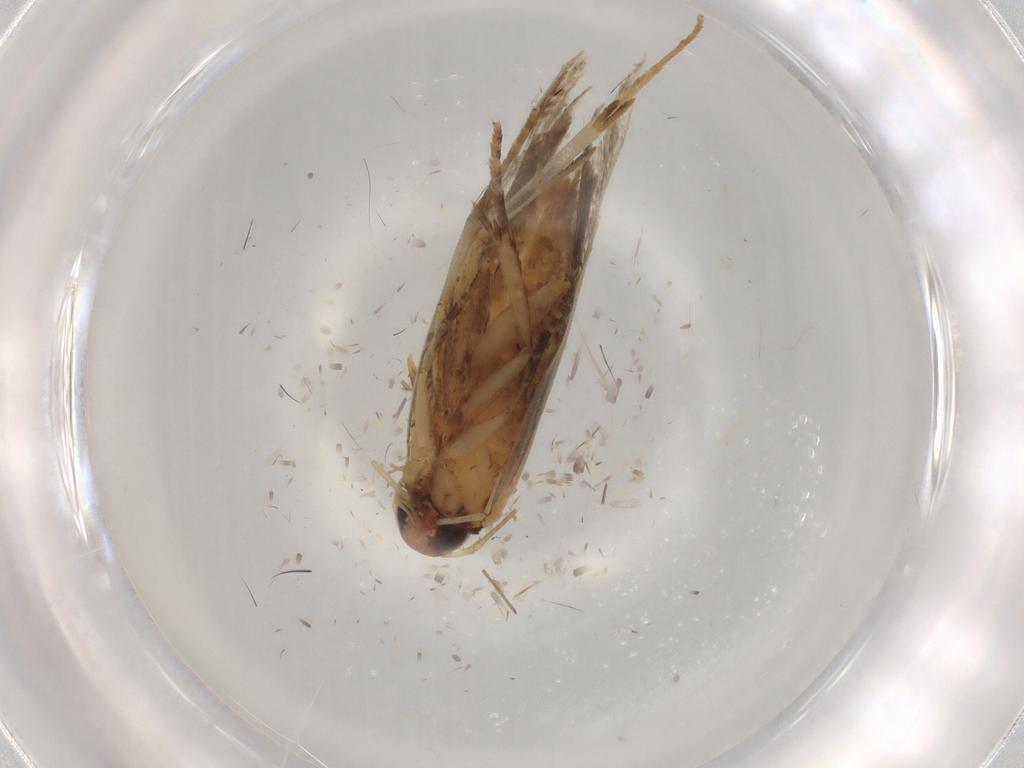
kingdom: Animalia
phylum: Arthropoda
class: Insecta
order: Lepidoptera
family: Gelechiidae
